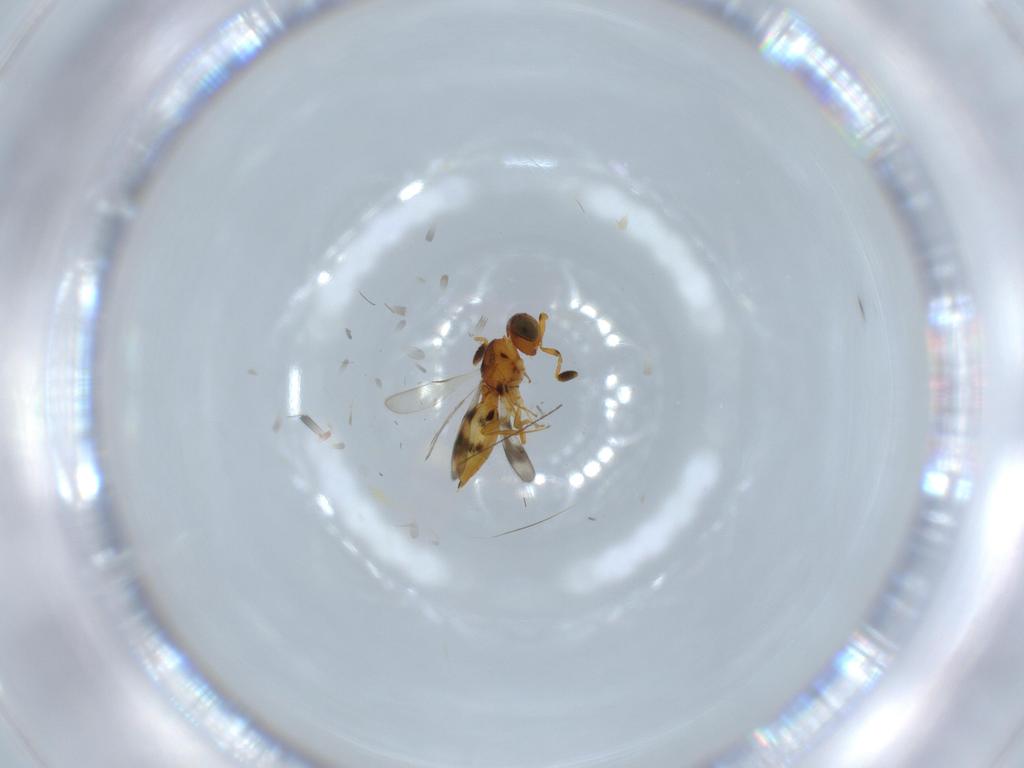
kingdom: Animalia
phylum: Arthropoda
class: Insecta
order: Hymenoptera
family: Scelionidae
